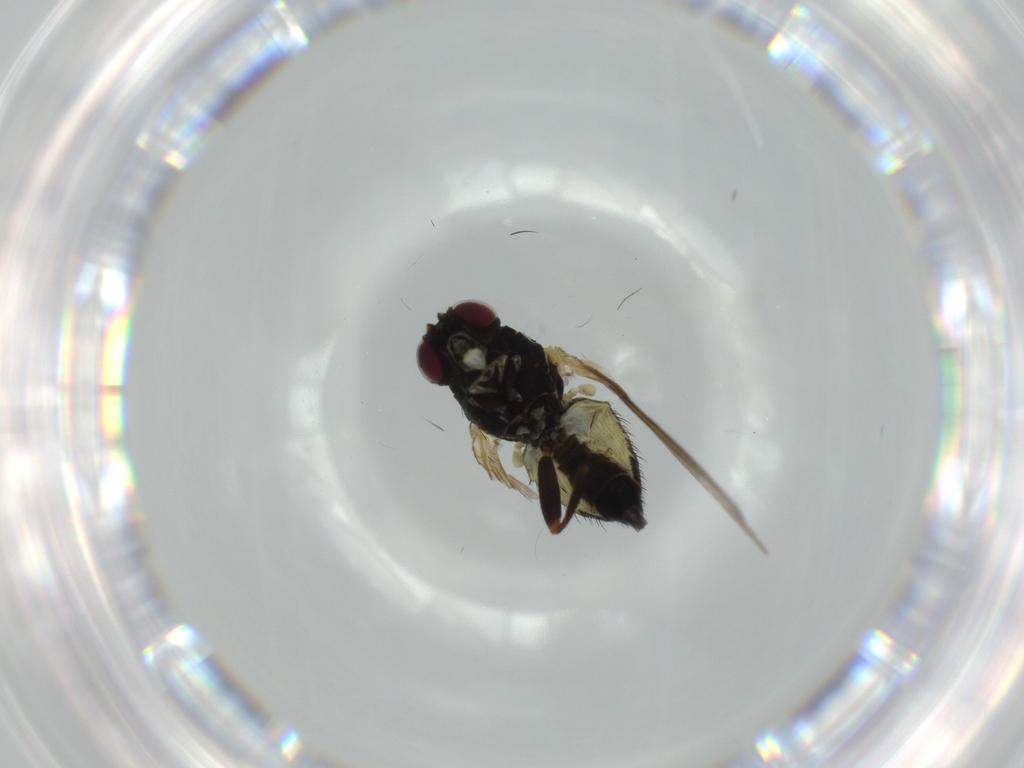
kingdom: Animalia
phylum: Arthropoda
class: Insecta
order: Diptera
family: Agromyzidae
